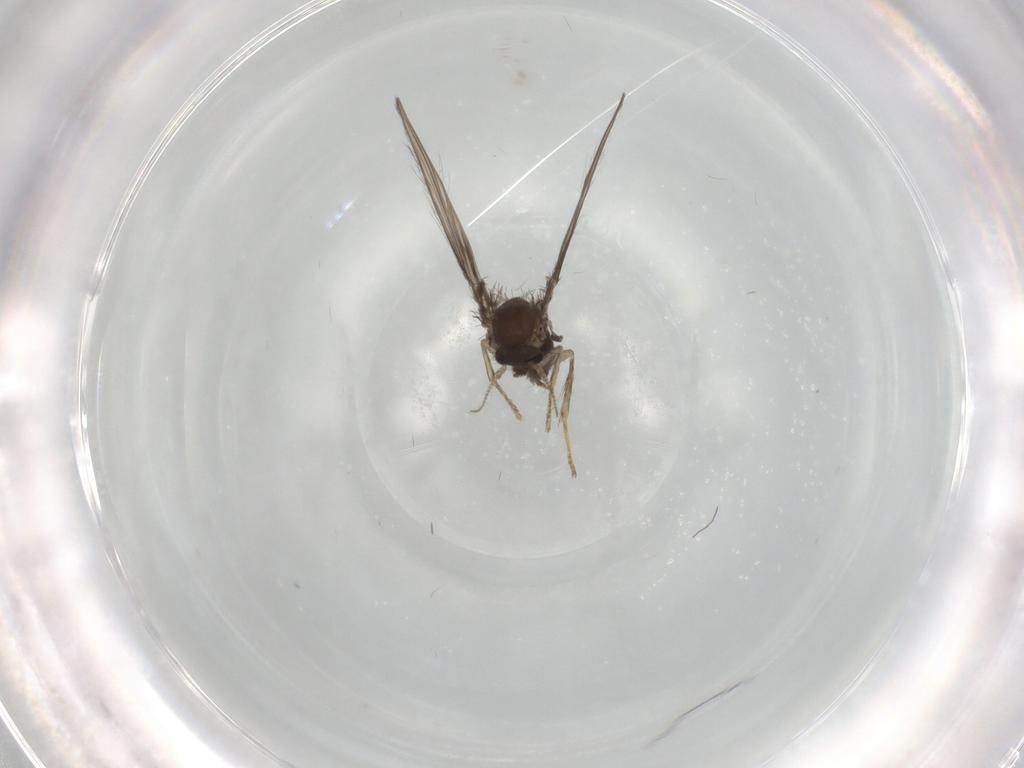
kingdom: Animalia
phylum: Arthropoda
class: Insecta
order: Diptera
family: Psychodidae
